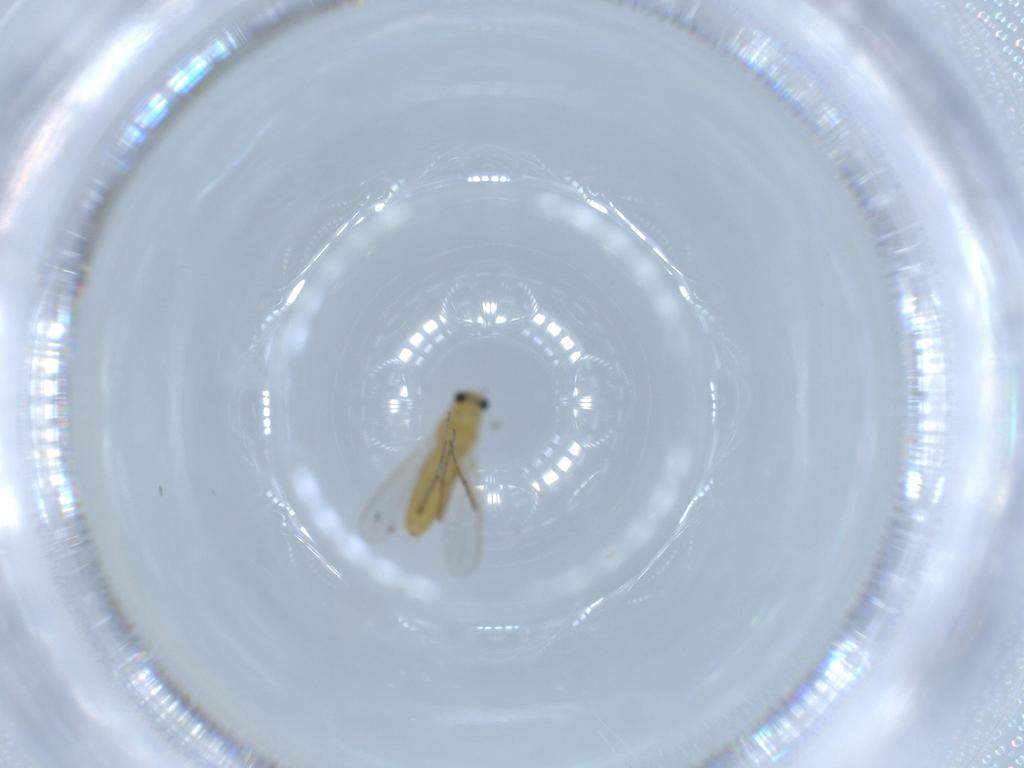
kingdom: Animalia
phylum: Arthropoda
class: Insecta
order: Diptera
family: Chironomidae
